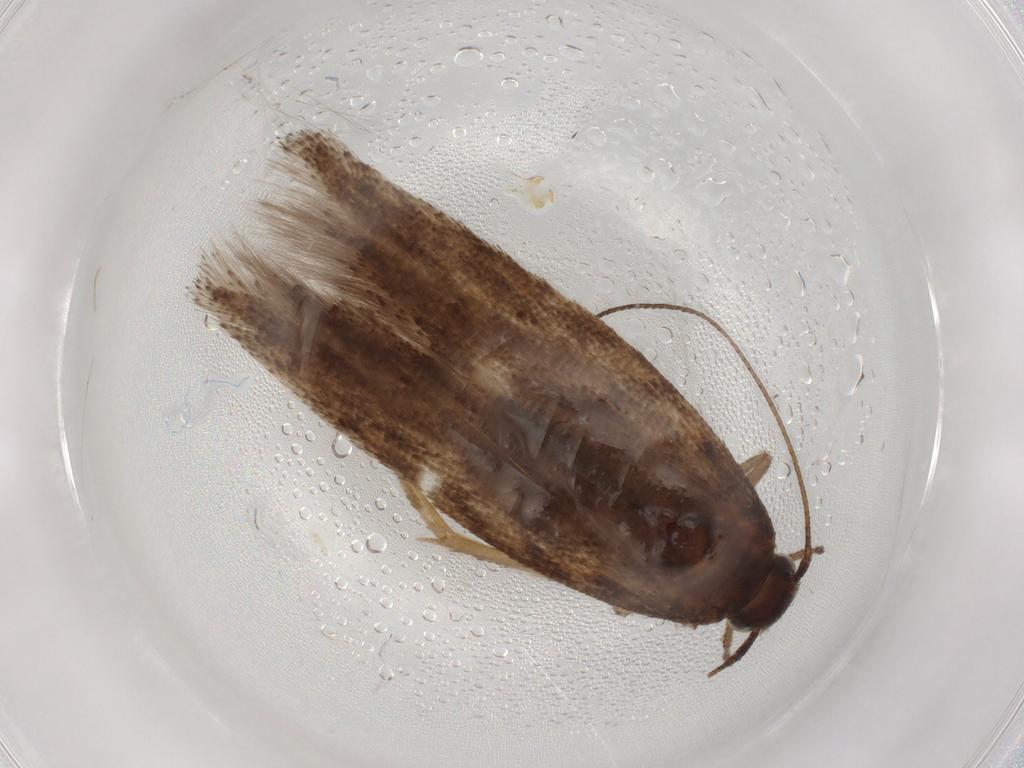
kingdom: Animalia
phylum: Arthropoda
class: Insecta
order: Lepidoptera
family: Gelechiidae
